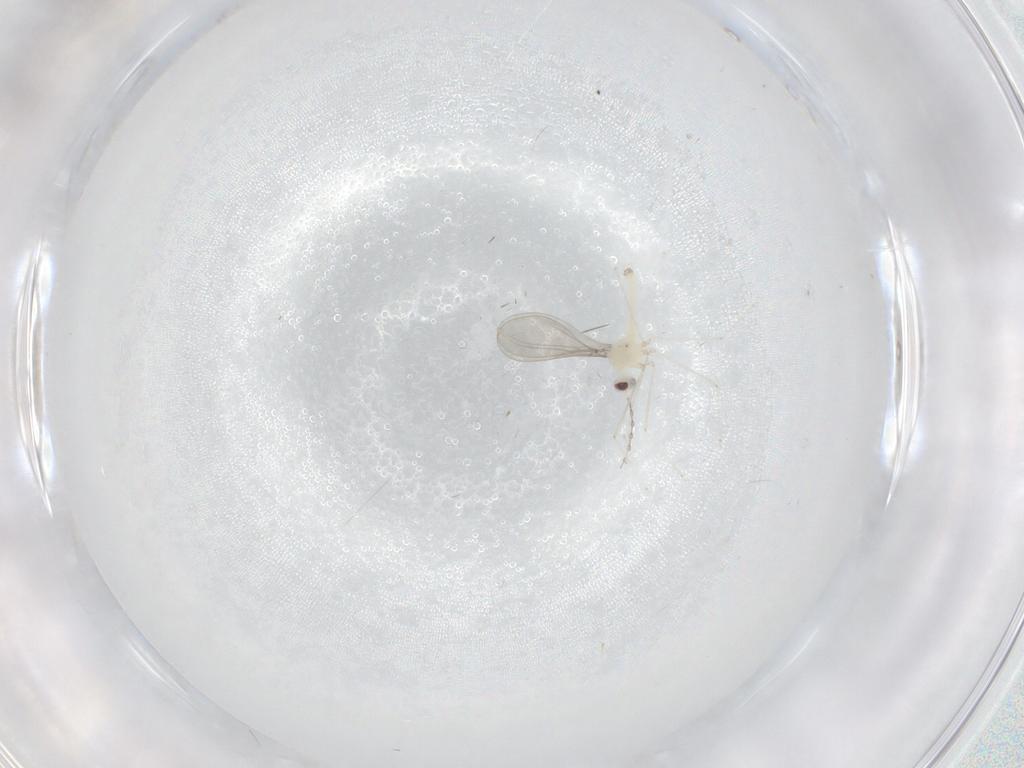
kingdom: Animalia
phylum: Arthropoda
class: Insecta
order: Diptera
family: Cecidomyiidae
